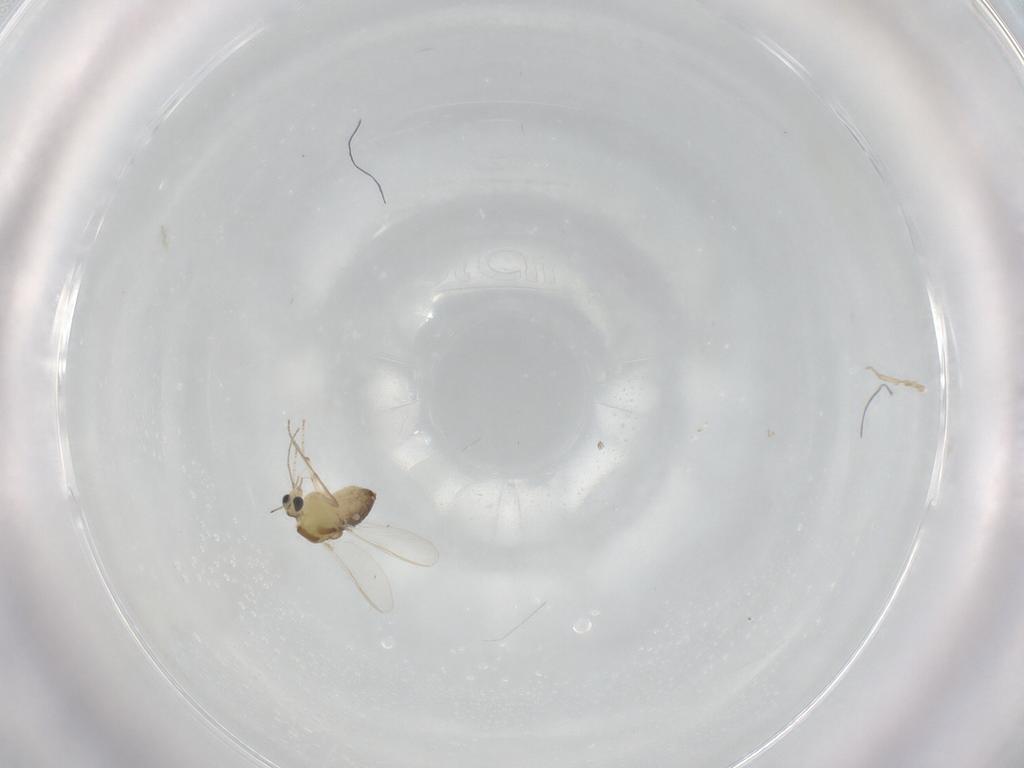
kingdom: Animalia
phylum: Arthropoda
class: Insecta
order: Diptera
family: Chironomidae
